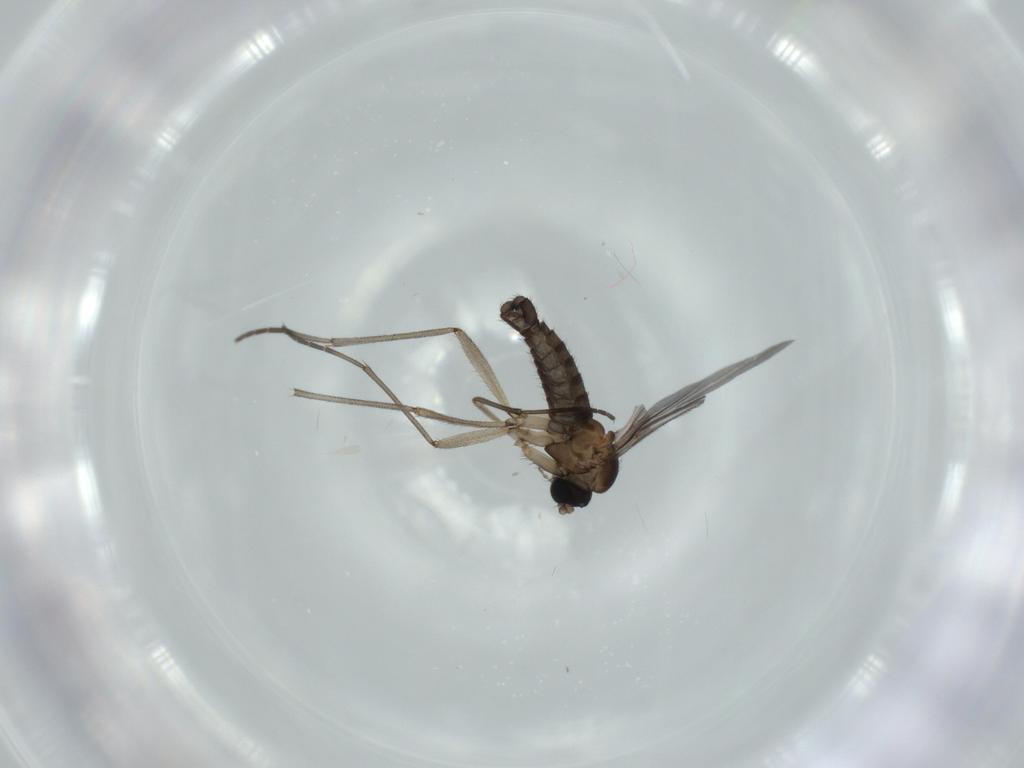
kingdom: Animalia
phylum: Arthropoda
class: Insecta
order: Diptera
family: Sciaridae
